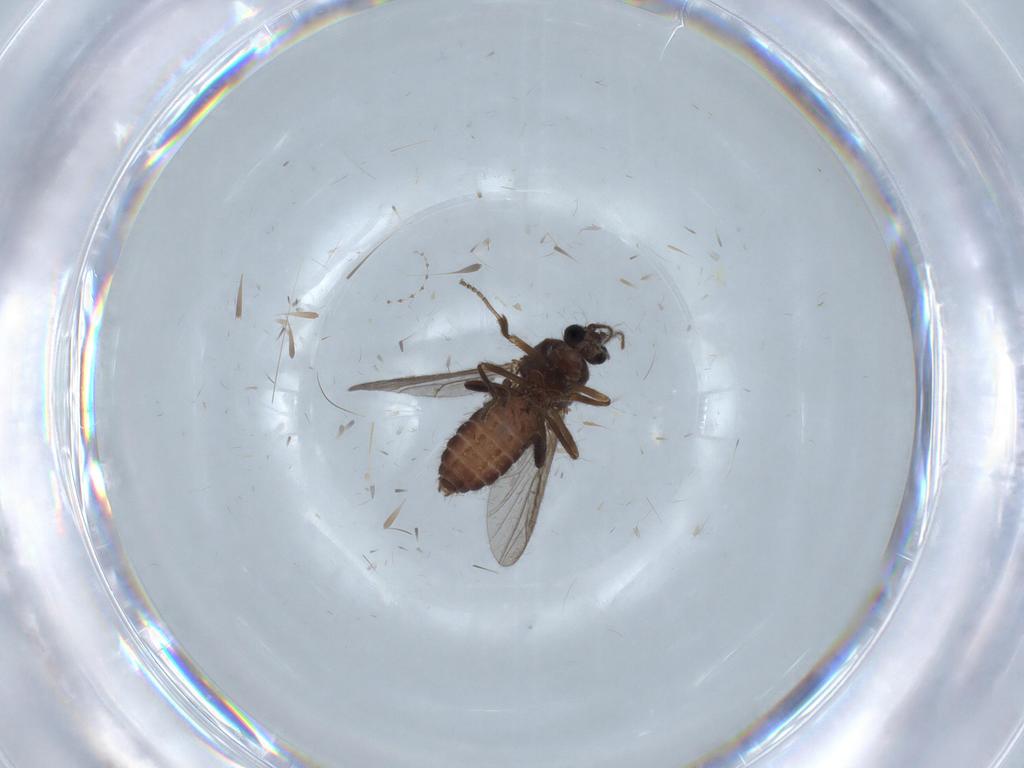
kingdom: Animalia
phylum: Arthropoda
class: Insecta
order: Diptera
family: Ceratopogonidae
